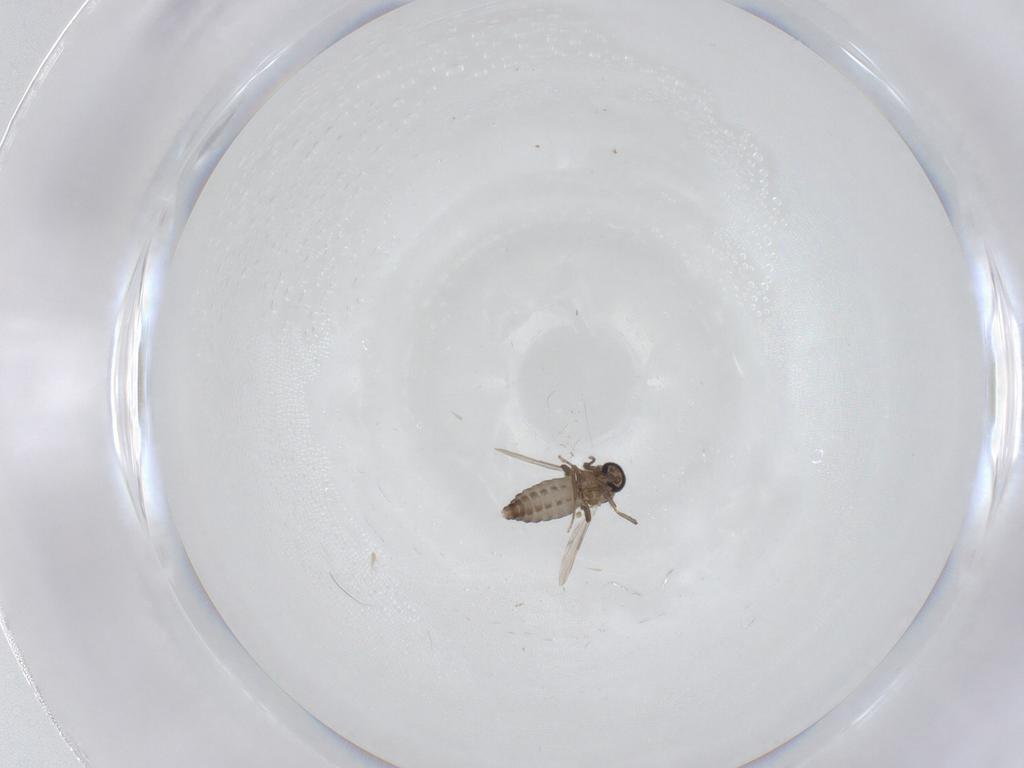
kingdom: Animalia
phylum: Arthropoda
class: Insecta
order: Diptera
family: Ceratopogonidae
